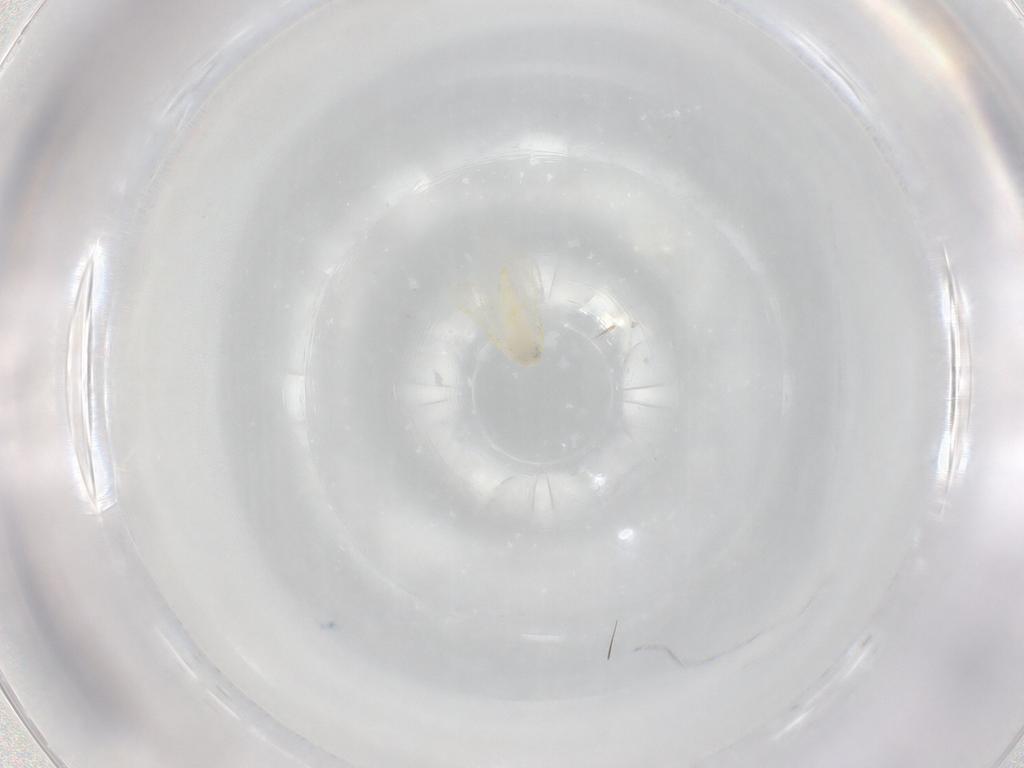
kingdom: Animalia
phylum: Arthropoda
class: Insecta
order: Hemiptera
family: Aleyrodidae
